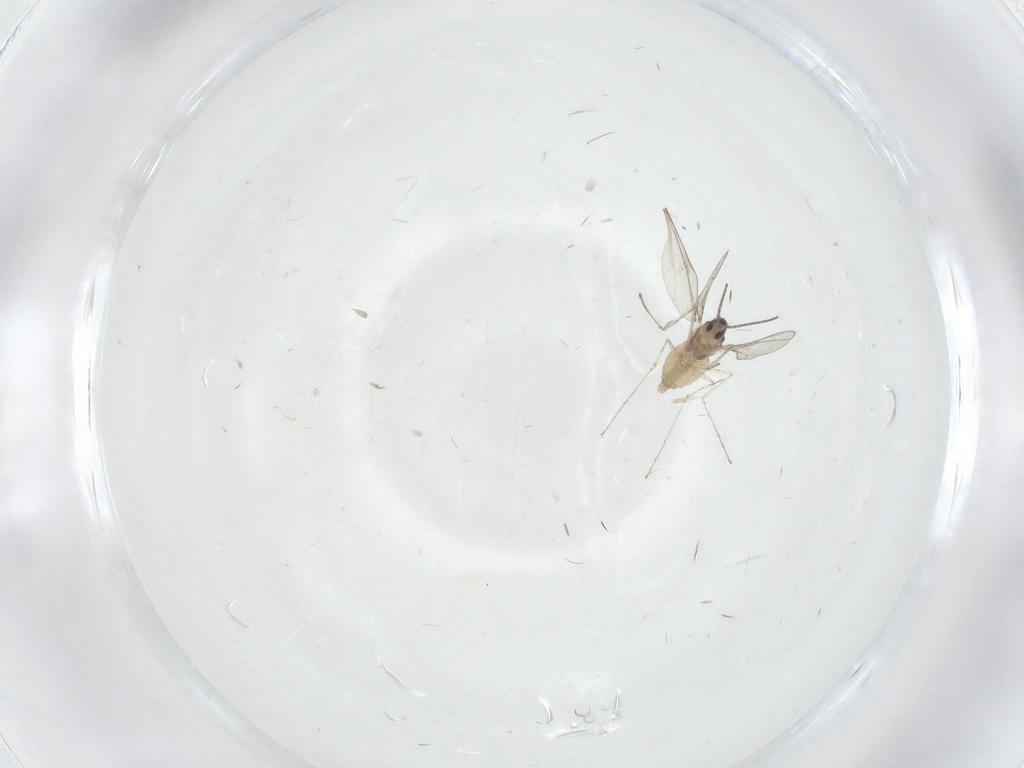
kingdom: Animalia
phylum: Arthropoda
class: Insecta
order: Diptera
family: Cecidomyiidae
